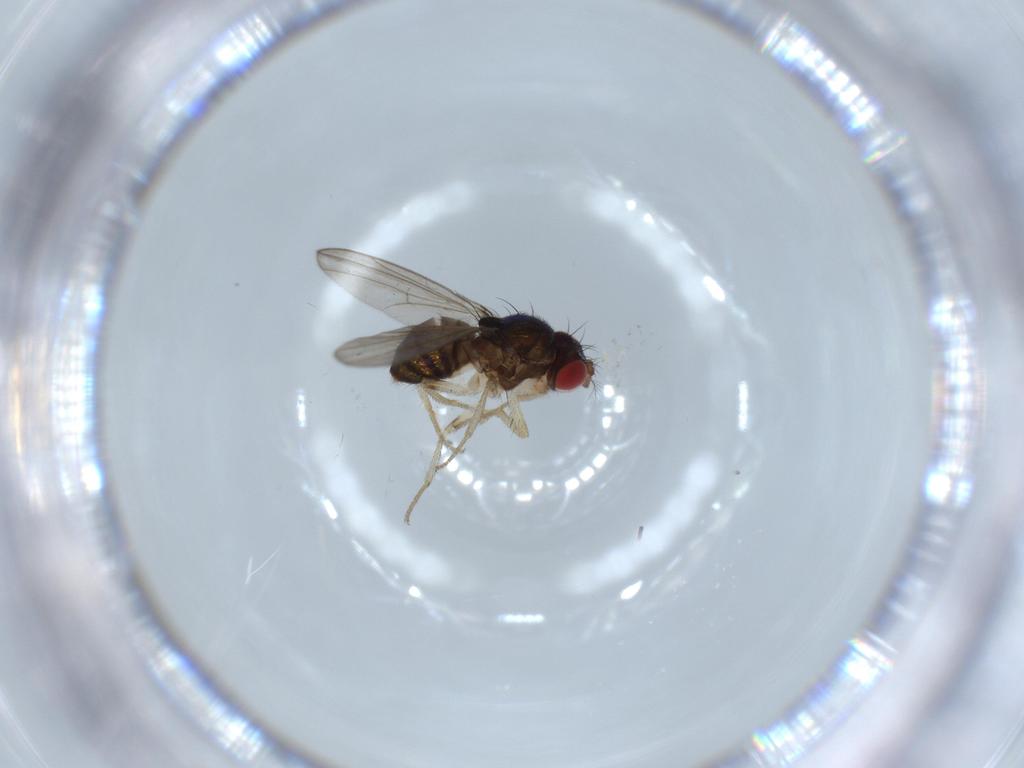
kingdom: Animalia
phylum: Arthropoda
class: Insecta
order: Diptera
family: Drosophilidae
